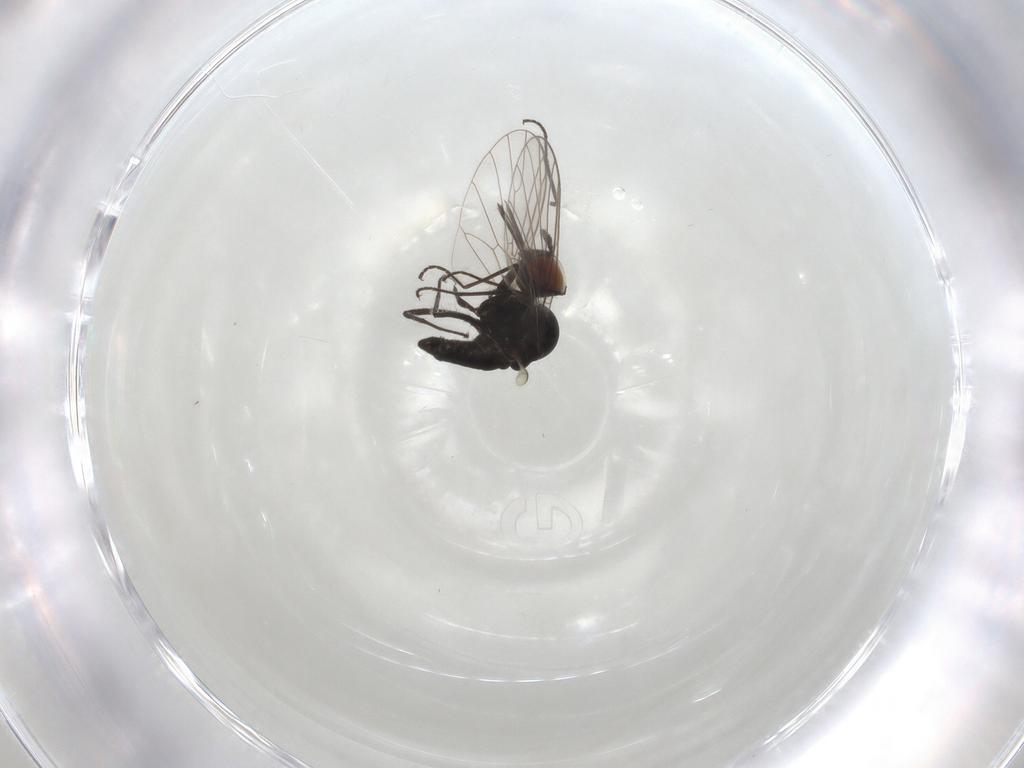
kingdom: Animalia
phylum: Arthropoda
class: Insecta
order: Diptera
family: Bombyliidae
